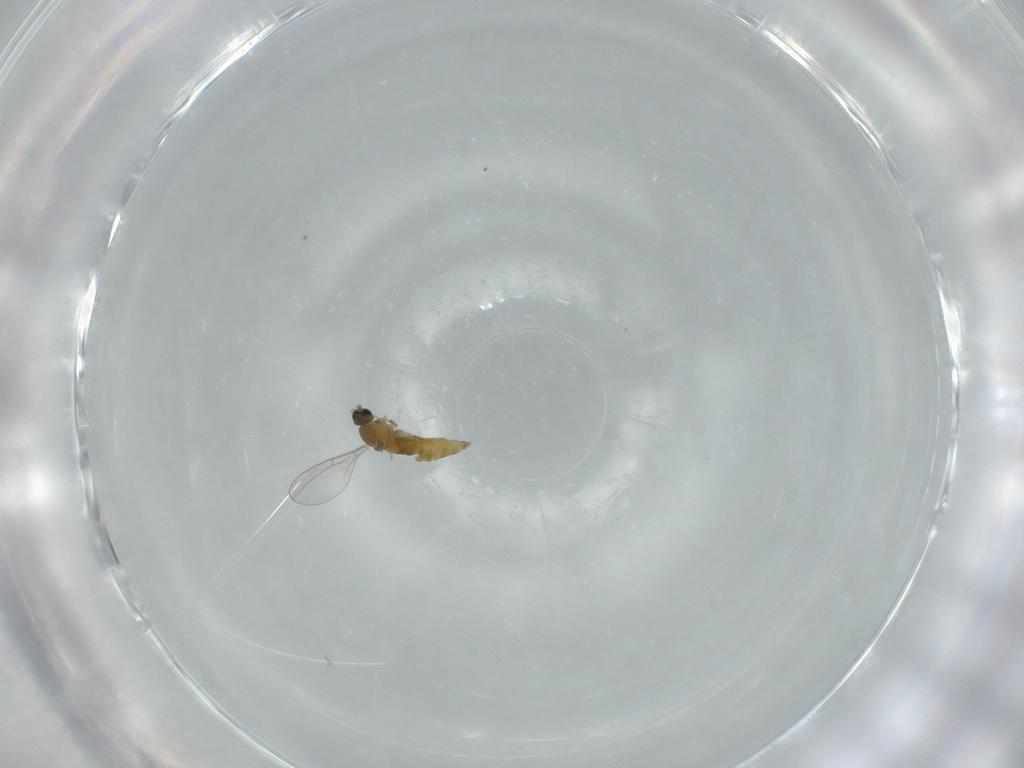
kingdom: Animalia
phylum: Arthropoda
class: Insecta
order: Diptera
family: Cecidomyiidae
